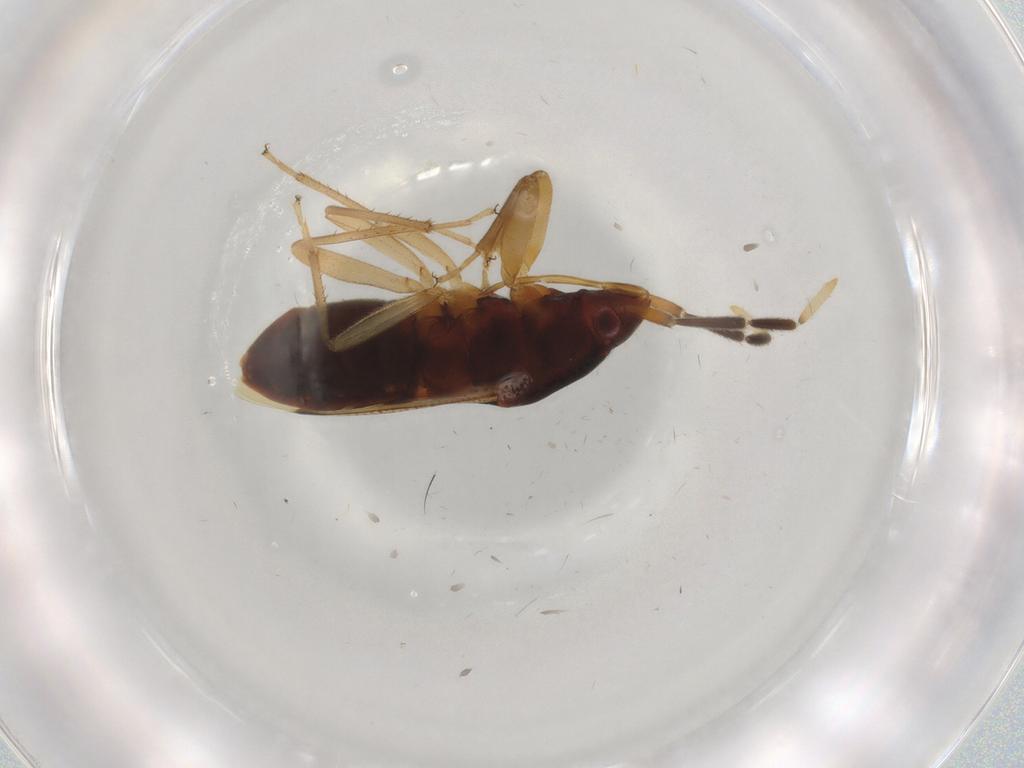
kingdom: Animalia
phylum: Arthropoda
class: Insecta
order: Hemiptera
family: Rhyparochromidae
